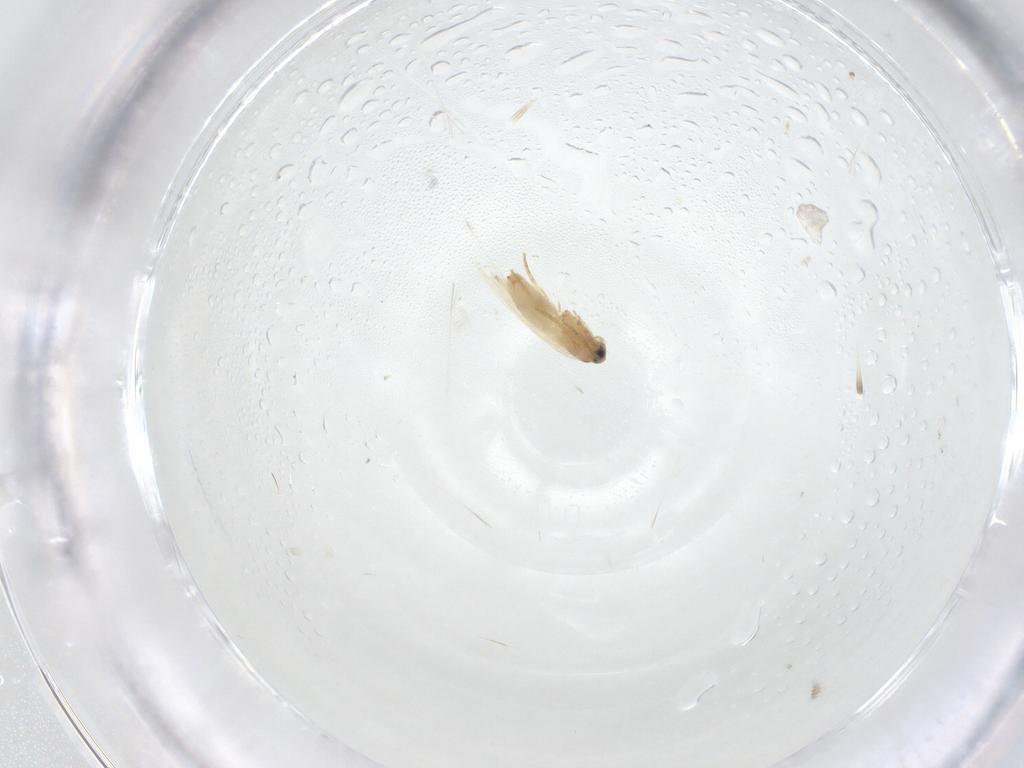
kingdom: Animalia
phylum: Arthropoda
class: Insecta
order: Lepidoptera
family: Crambidae
